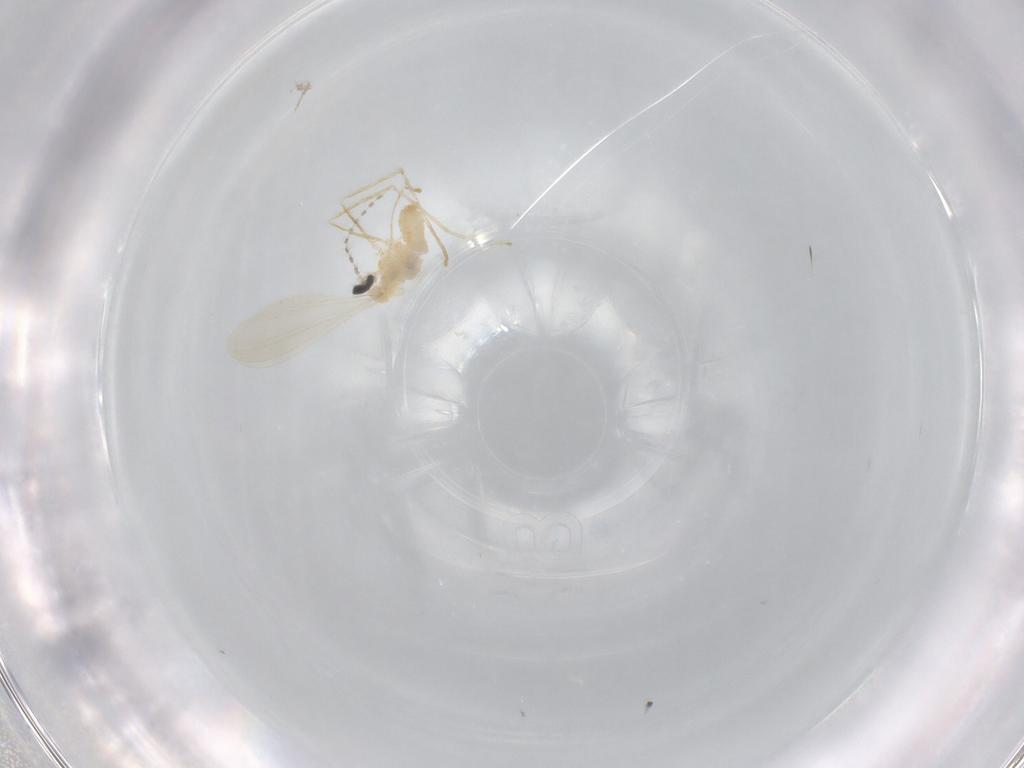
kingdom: Animalia
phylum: Arthropoda
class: Insecta
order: Diptera
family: Cecidomyiidae
